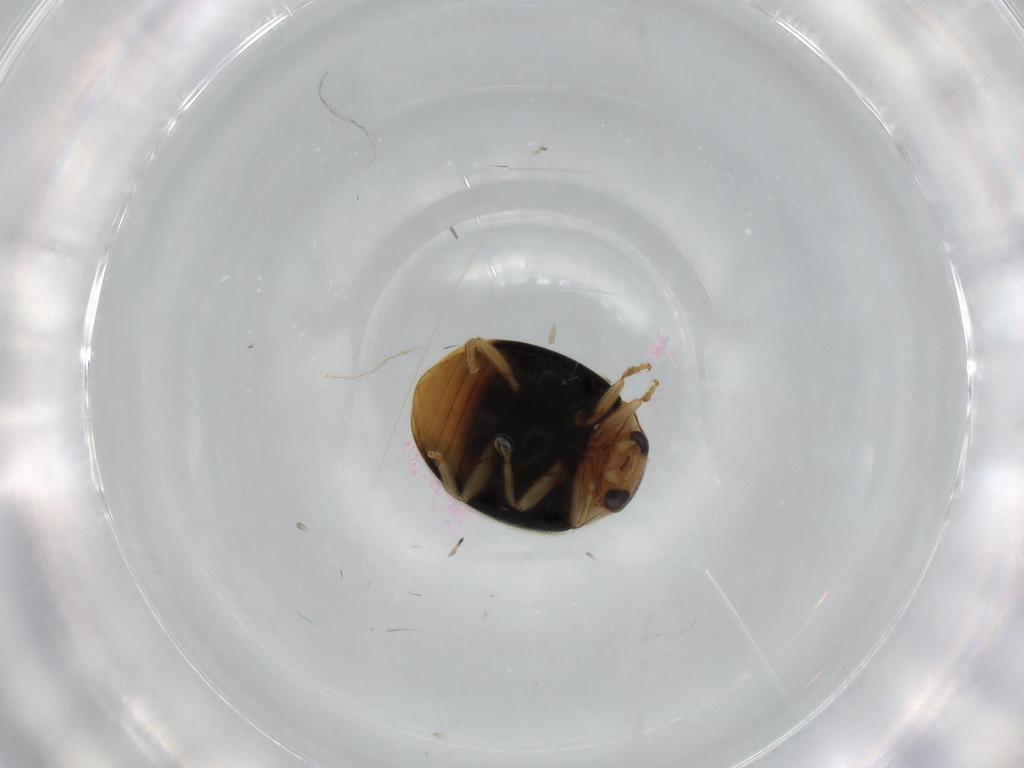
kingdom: Animalia
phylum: Arthropoda
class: Insecta
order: Coleoptera
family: Coccinellidae
